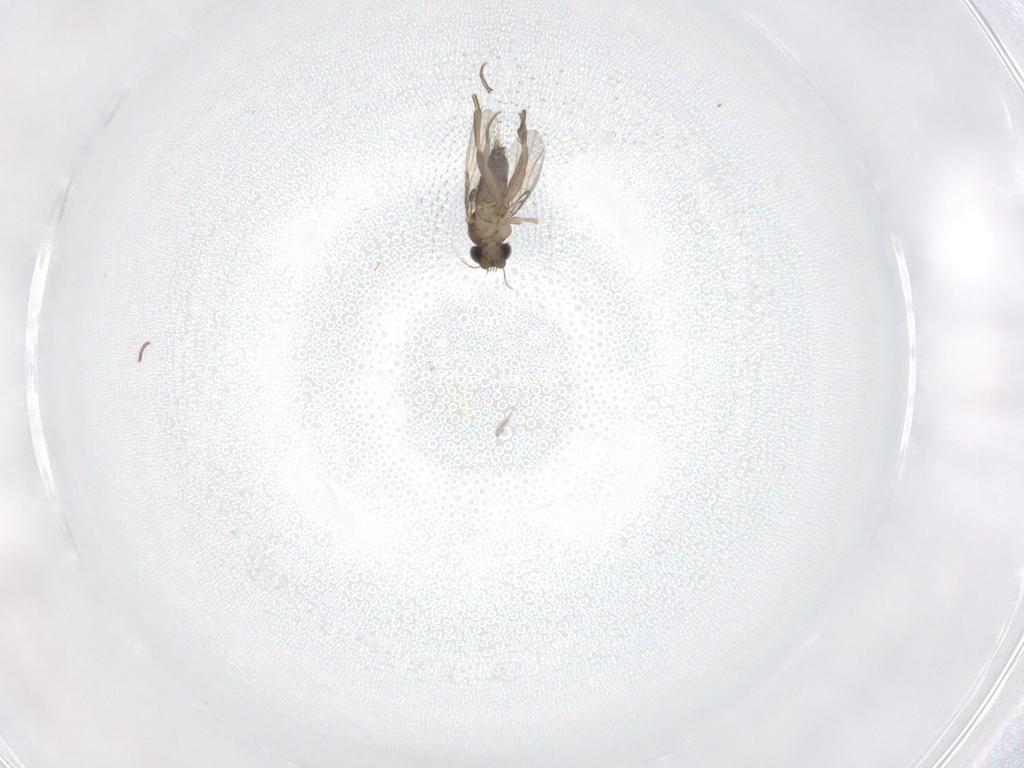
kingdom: Animalia
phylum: Arthropoda
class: Insecta
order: Diptera
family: Phoridae
